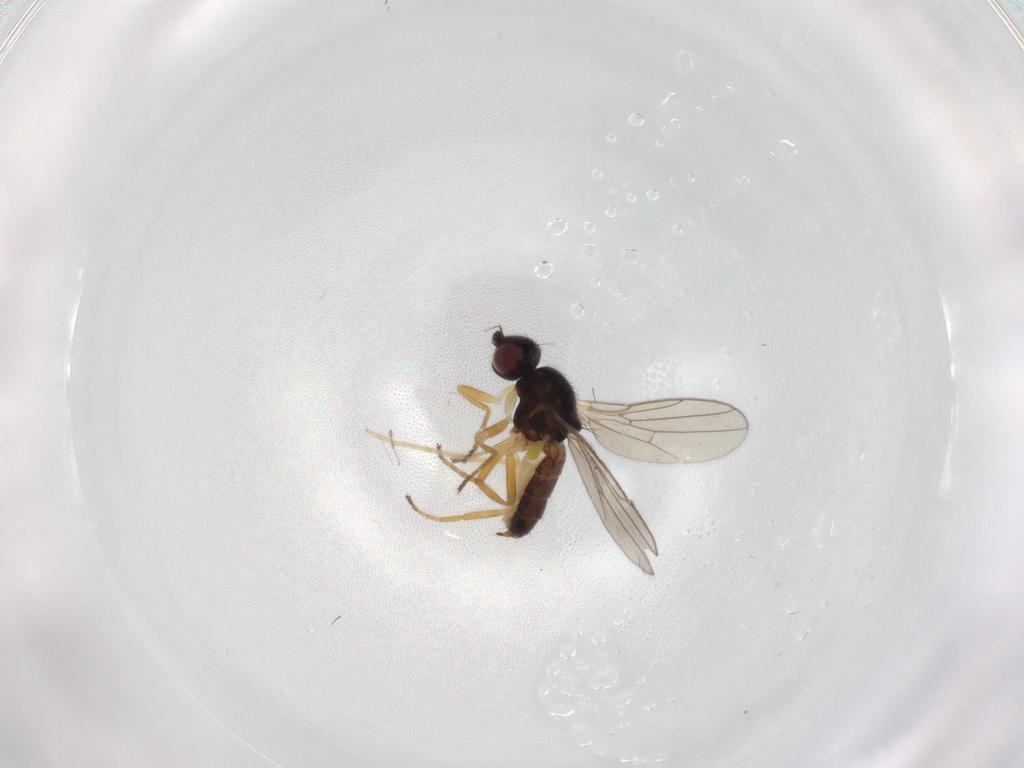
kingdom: Animalia
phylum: Arthropoda
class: Insecta
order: Diptera
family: Chloropidae
